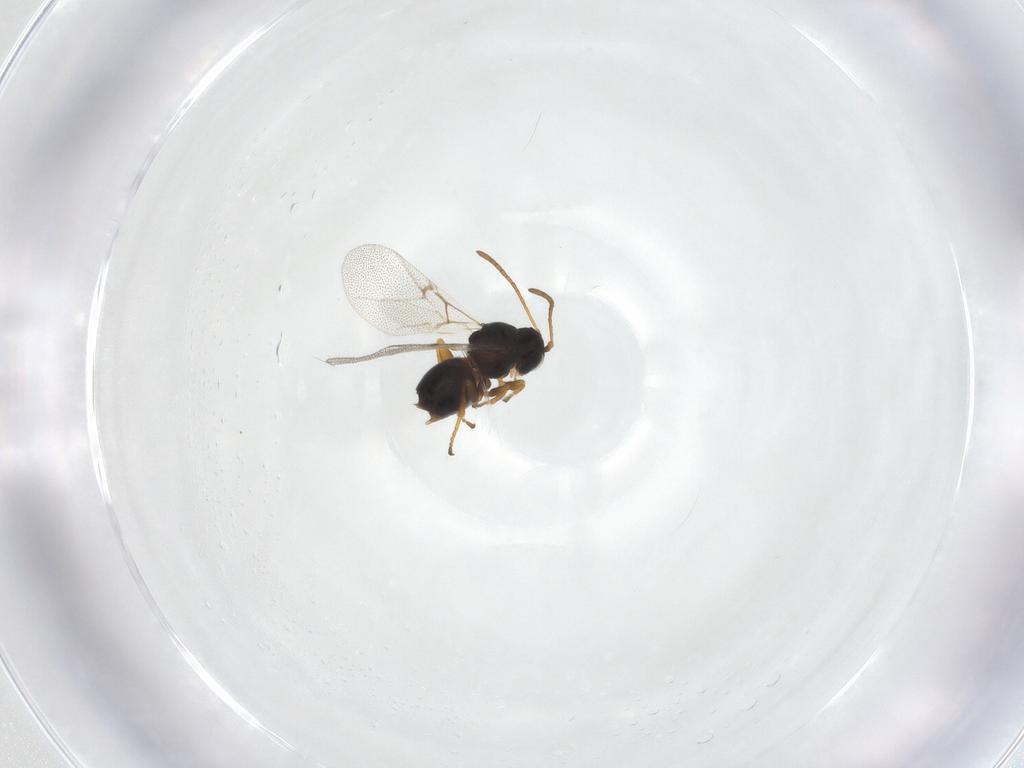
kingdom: Animalia
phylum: Arthropoda
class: Insecta
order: Hymenoptera
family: Cynipidae
